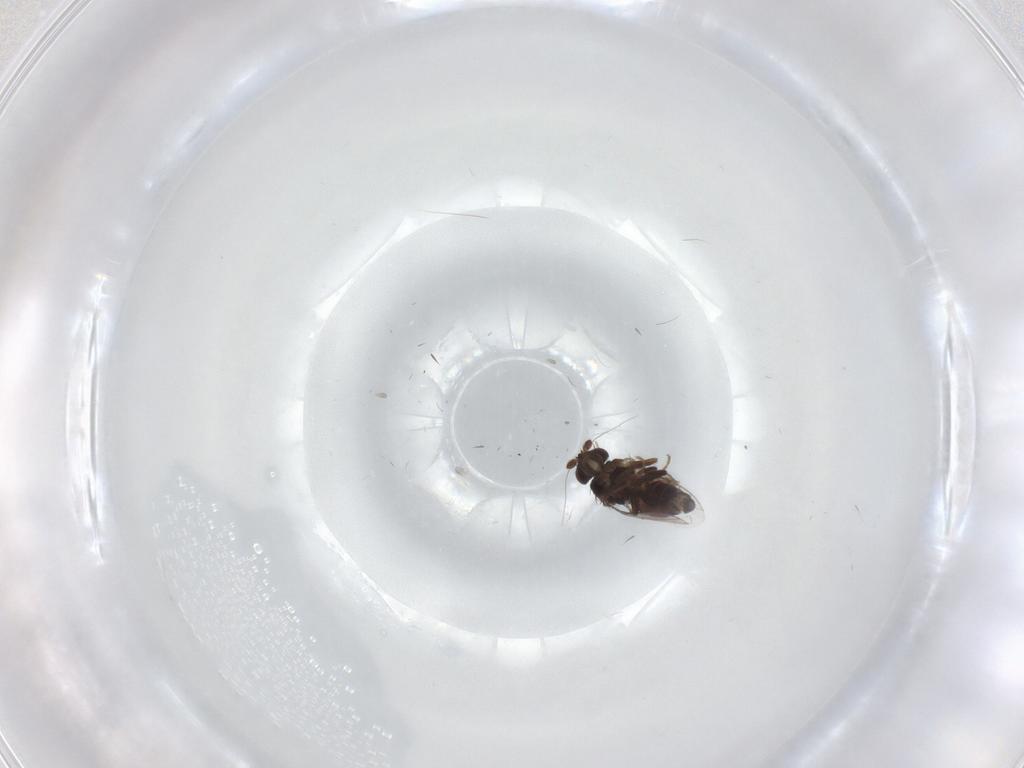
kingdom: Animalia
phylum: Arthropoda
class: Insecta
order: Diptera
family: Sphaeroceridae
